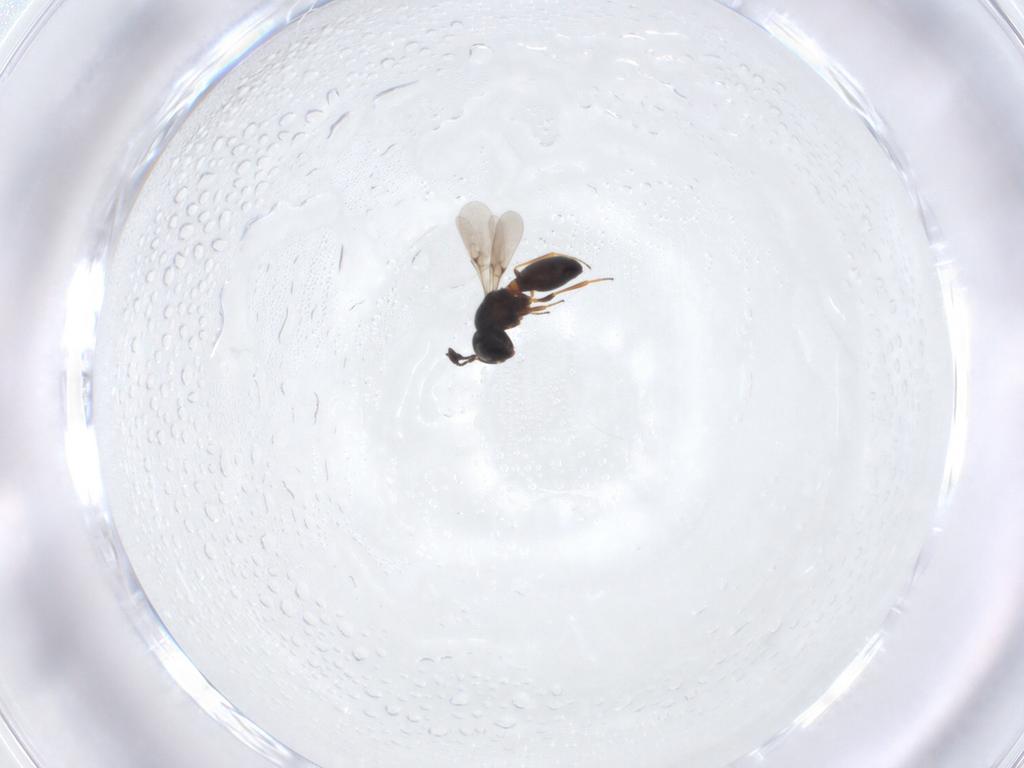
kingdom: Animalia
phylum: Arthropoda
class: Insecta
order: Hymenoptera
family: Scelionidae
